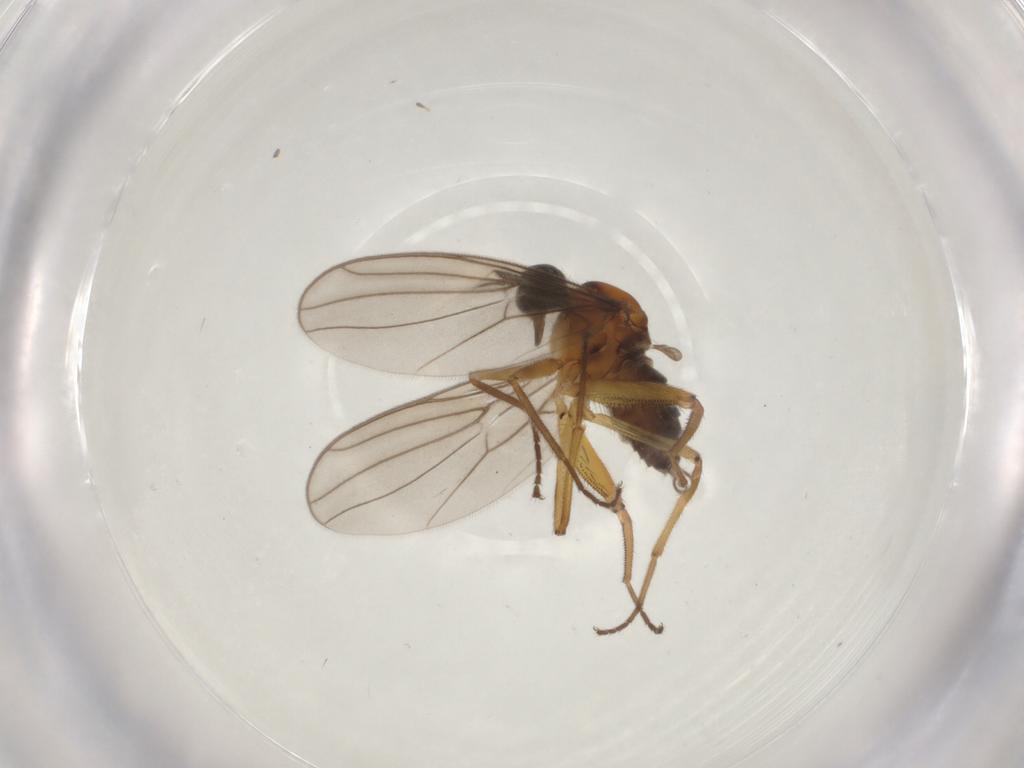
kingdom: Animalia
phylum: Arthropoda
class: Insecta
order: Diptera
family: Hybotidae
